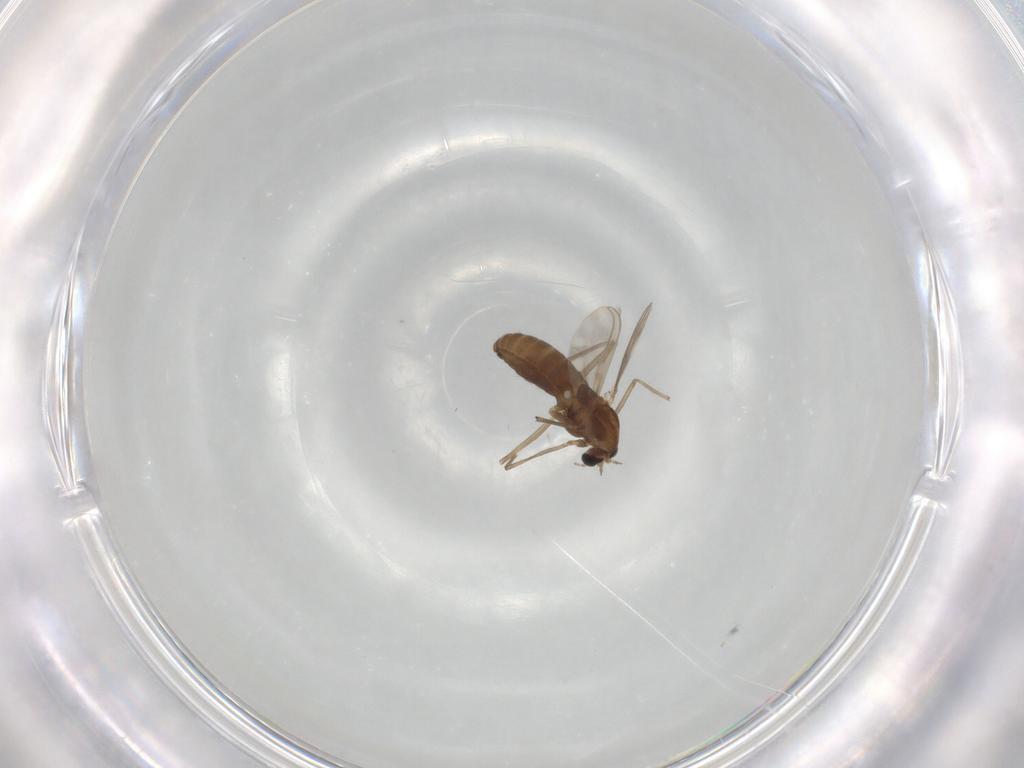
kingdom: Animalia
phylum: Arthropoda
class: Insecta
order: Diptera
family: Chironomidae
